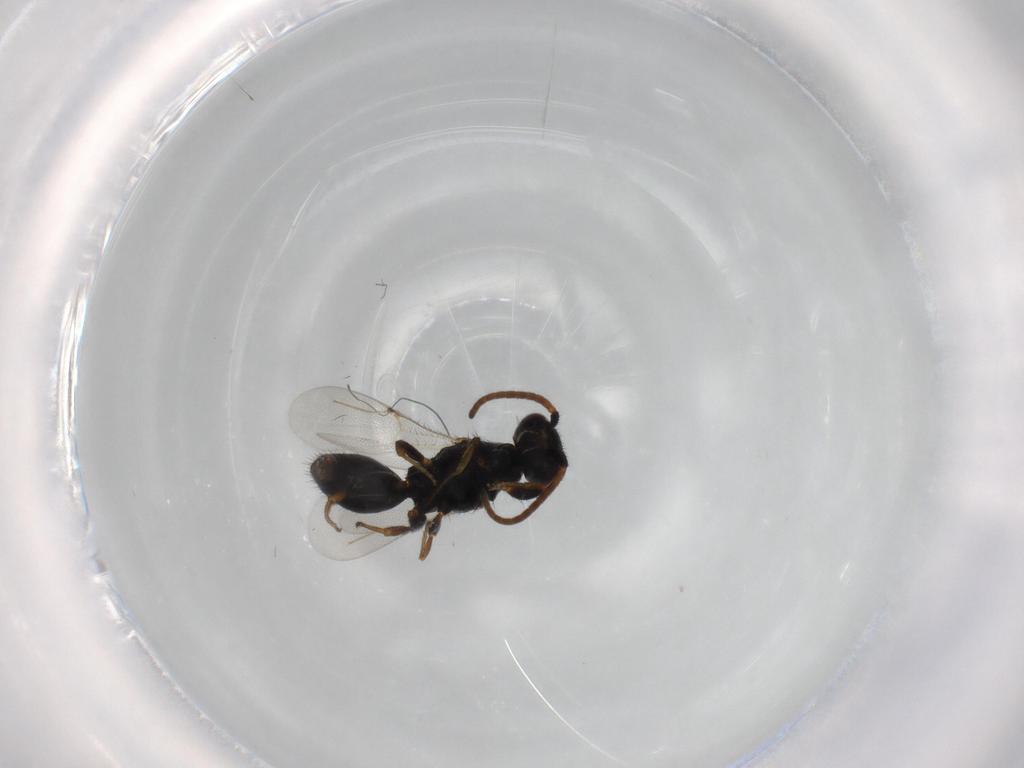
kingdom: Animalia
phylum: Arthropoda
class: Insecta
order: Hymenoptera
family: Bethylidae
